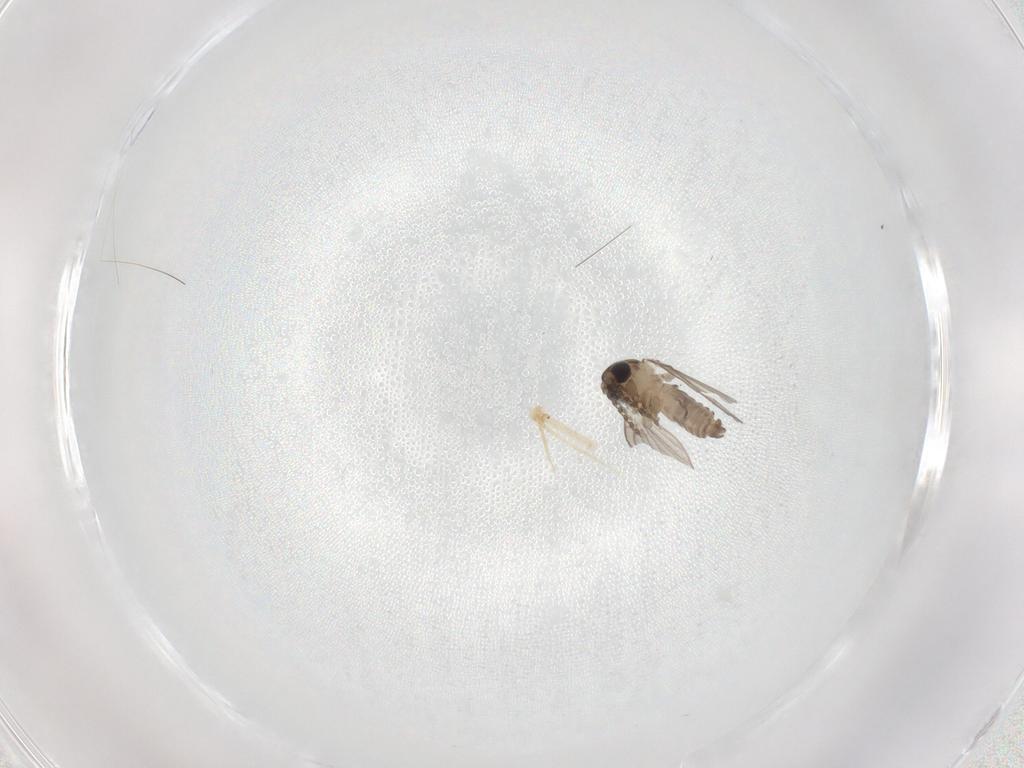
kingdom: Animalia
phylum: Arthropoda
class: Insecta
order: Diptera
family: Psychodidae
